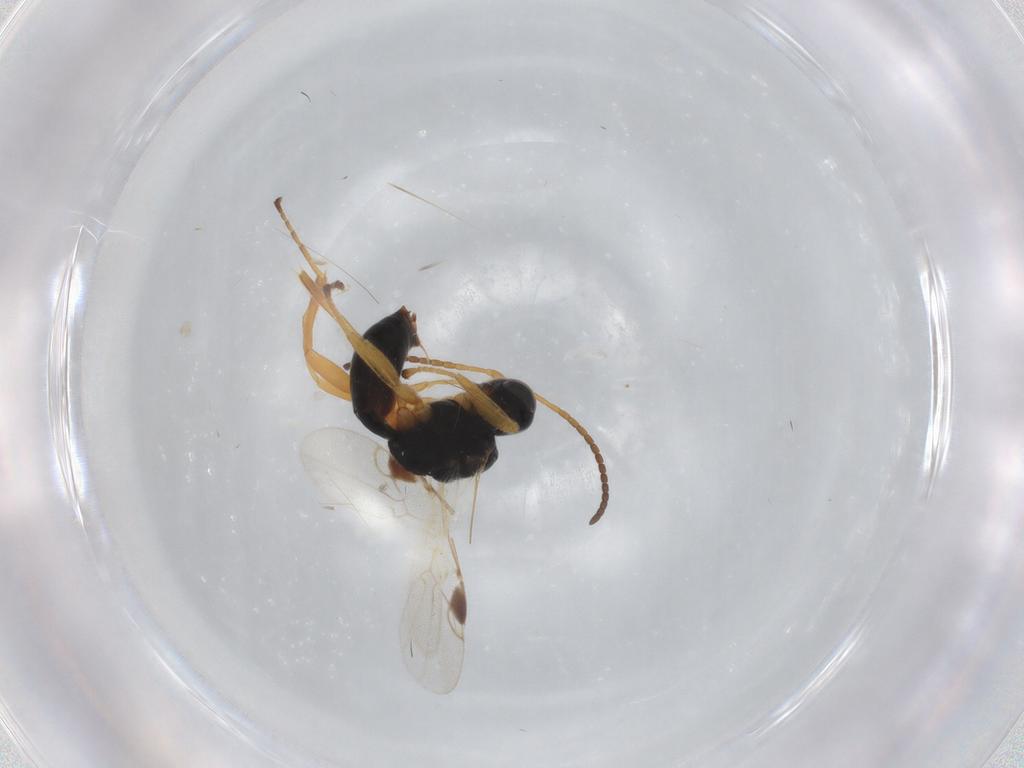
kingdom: Animalia
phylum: Arthropoda
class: Insecta
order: Hymenoptera
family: Braconidae
